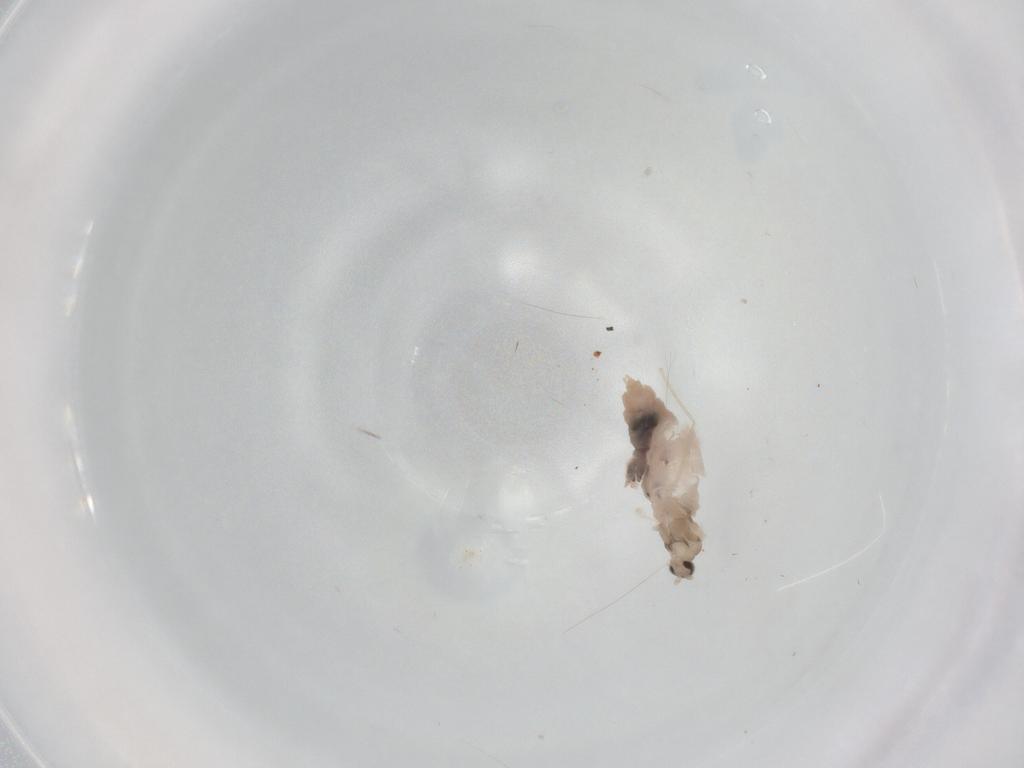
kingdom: Animalia
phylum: Arthropoda
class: Insecta
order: Diptera
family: Cecidomyiidae
